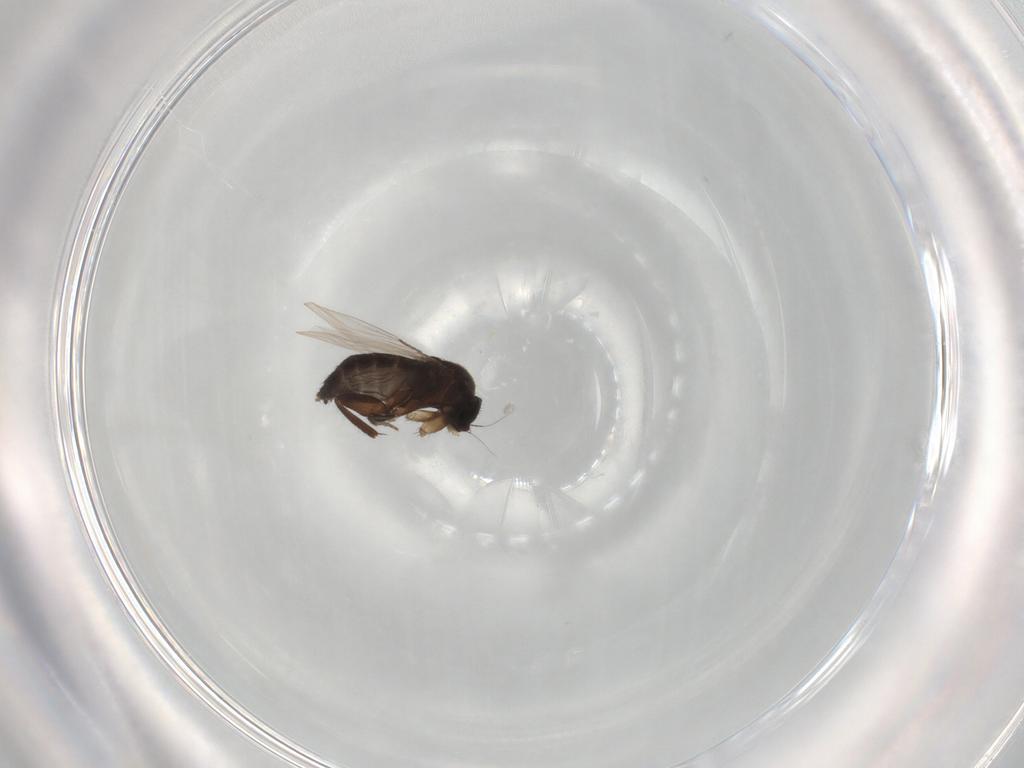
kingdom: Animalia
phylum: Arthropoda
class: Insecta
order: Diptera
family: Phoridae
